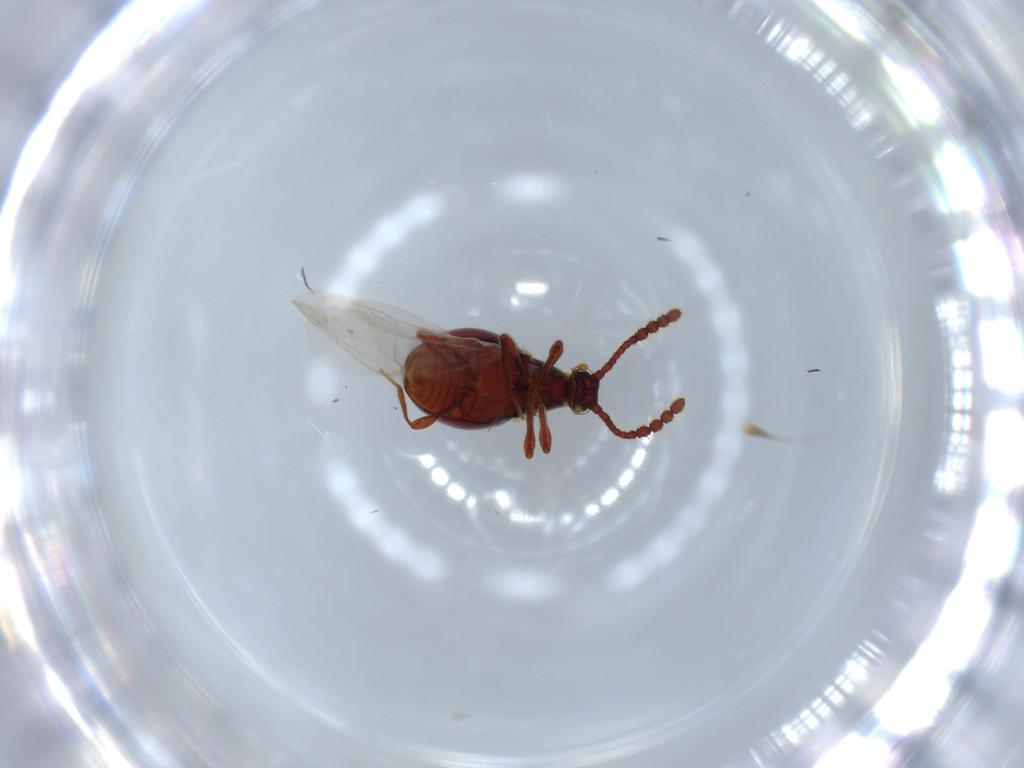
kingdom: Animalia
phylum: Arthropoda
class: Insecta
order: Coleoptera
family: Staphylinidae
